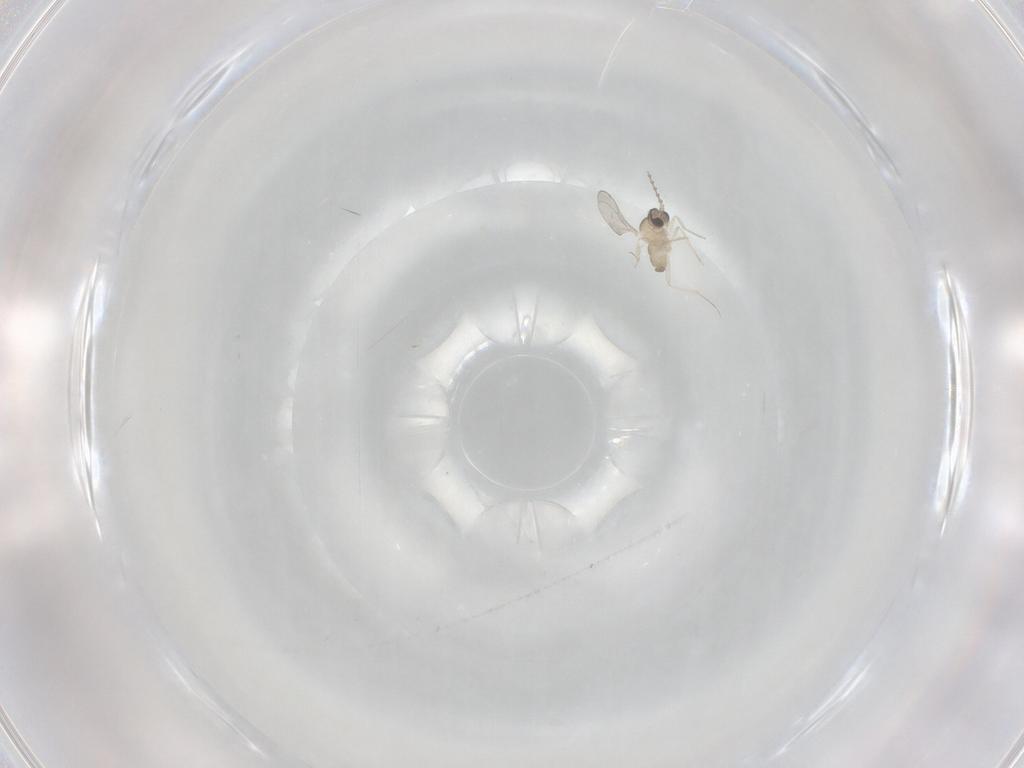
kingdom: Animalia
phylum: Arthropoda
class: Insecta
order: Diptera
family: Cecidomyiidae
